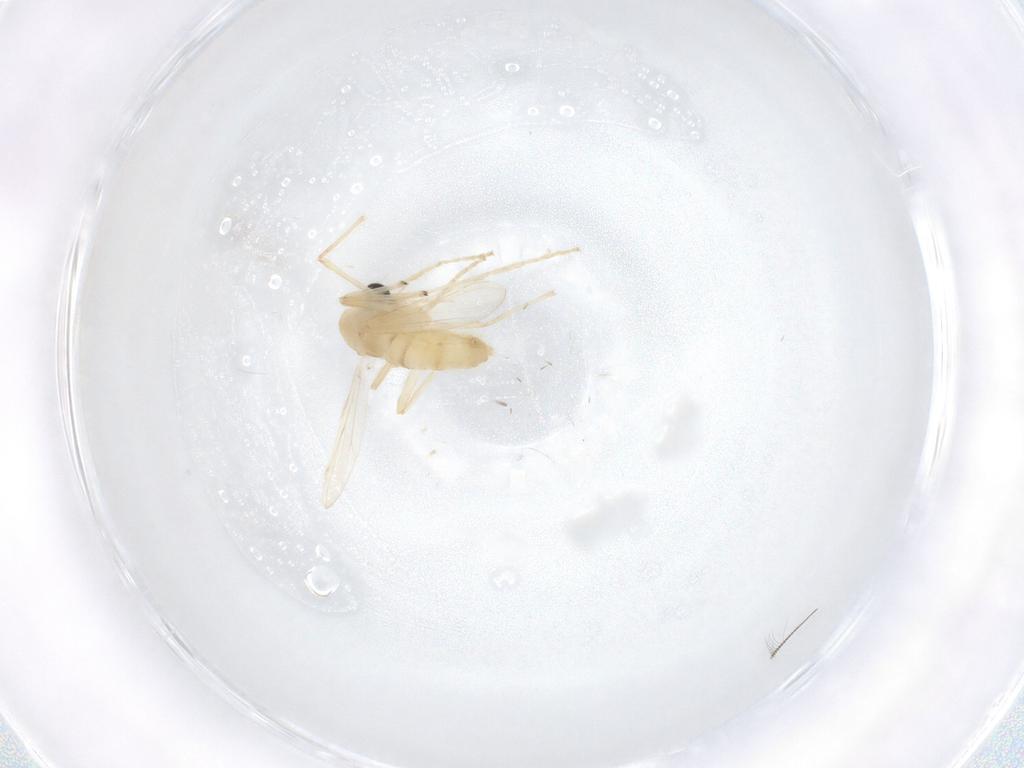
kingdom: Animalia
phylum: Arthropoda
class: Insecta
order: Diptera
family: Chironomidae
